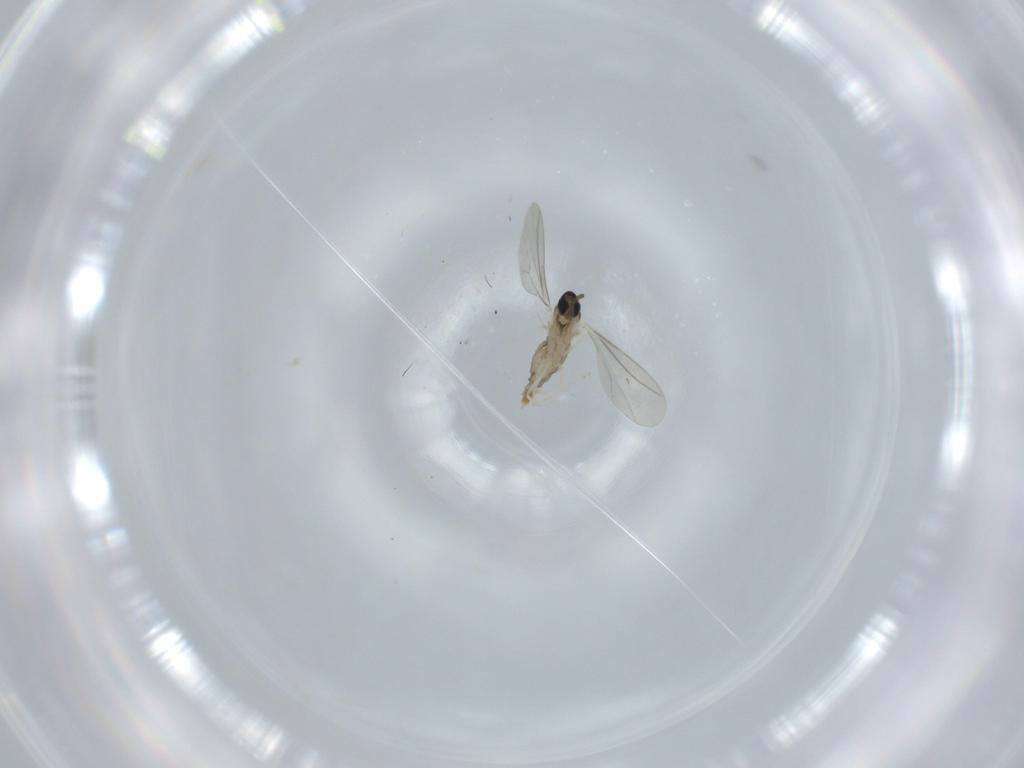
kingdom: Animalia
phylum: Arthropoda
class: Insecta
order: Diptera
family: Cecidomyiidae
